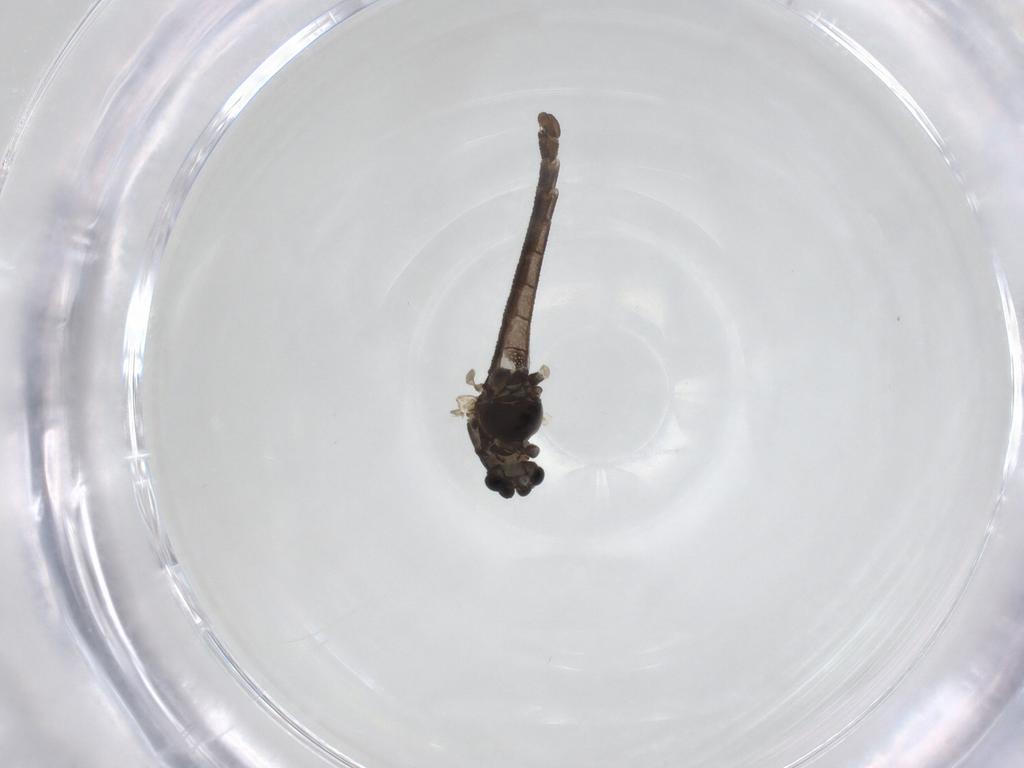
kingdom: Animalia
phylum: Arthropoda
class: Insecta
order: Diptera
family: Chironomidae
